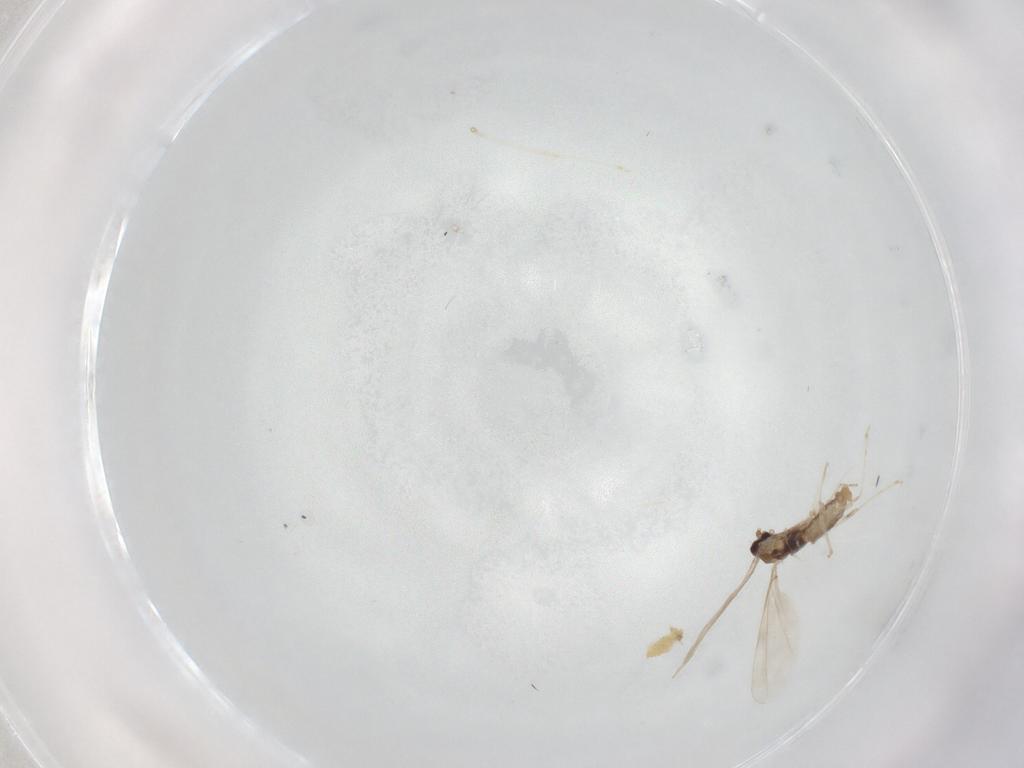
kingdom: Animalia
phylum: Arthropoda
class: Insecta
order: Diptera
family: Cecidomyiidae
